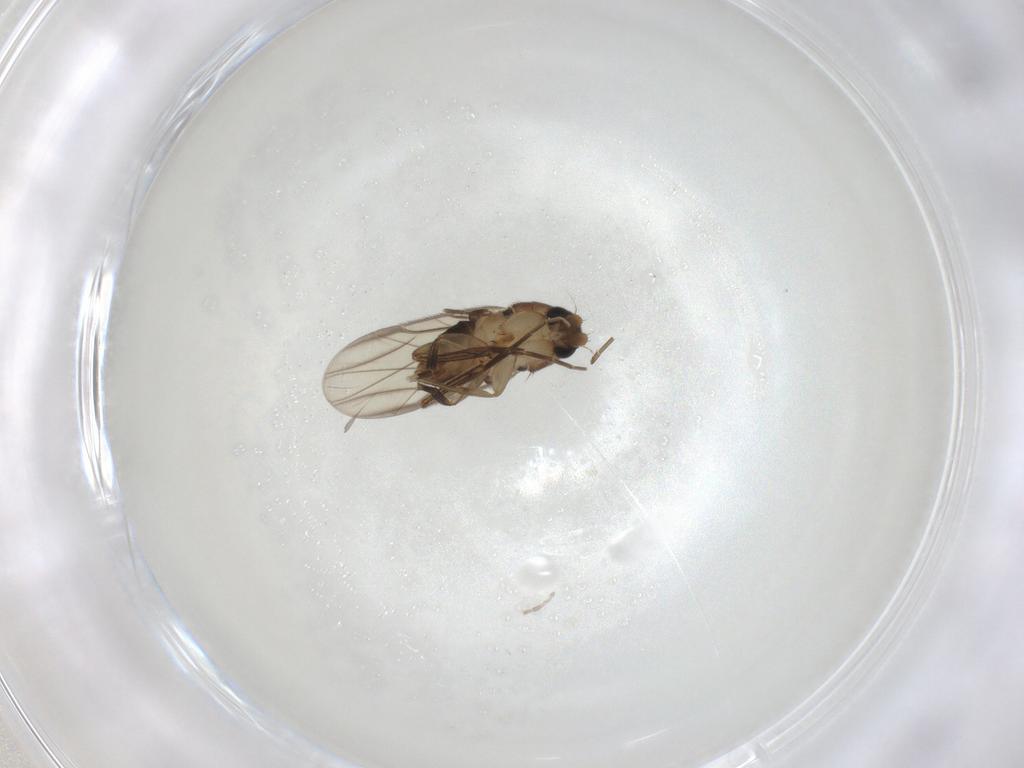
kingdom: Animalia
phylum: Arthropoda
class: Insecta
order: Diptera
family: Phoridae
